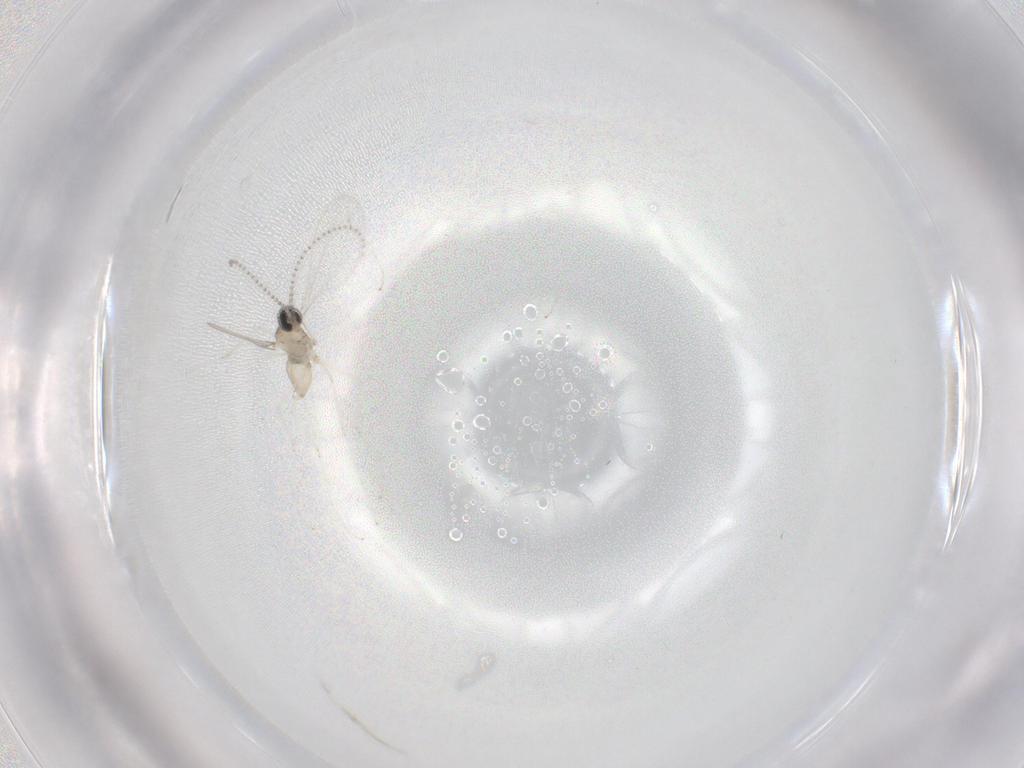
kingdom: Animalia
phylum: Arthropoda
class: Insecta
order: Diptera
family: Cecidomyiidae
